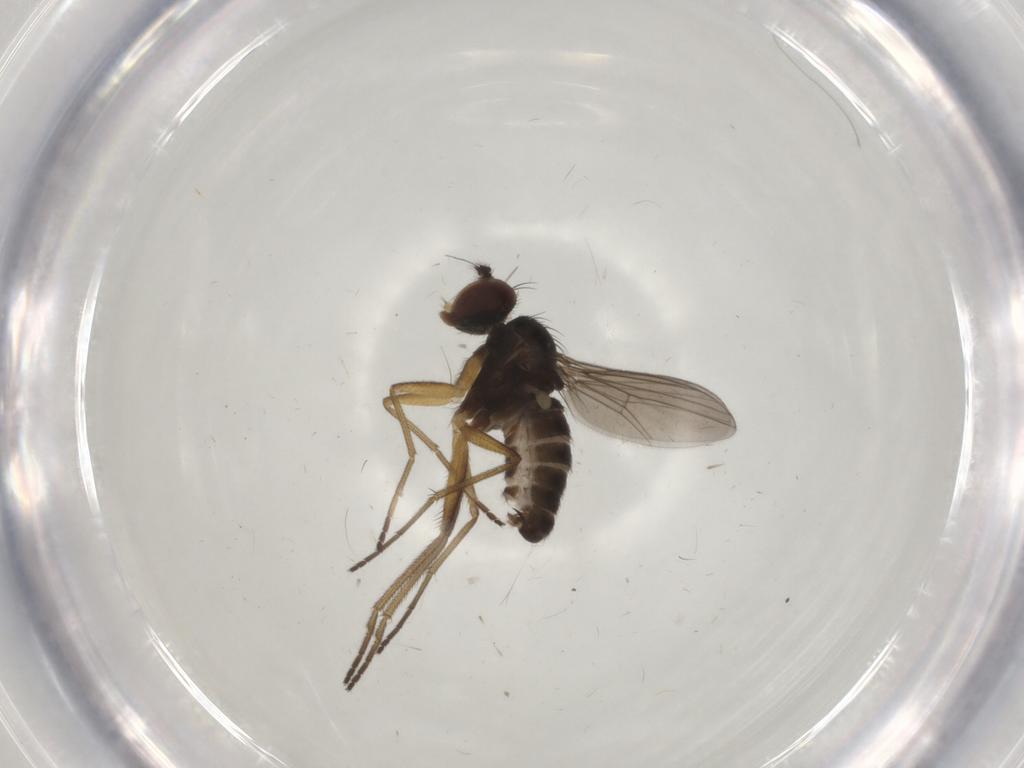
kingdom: Animalia
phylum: Arthropoda
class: Insecta
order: Diptera
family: Dolichopodidae
